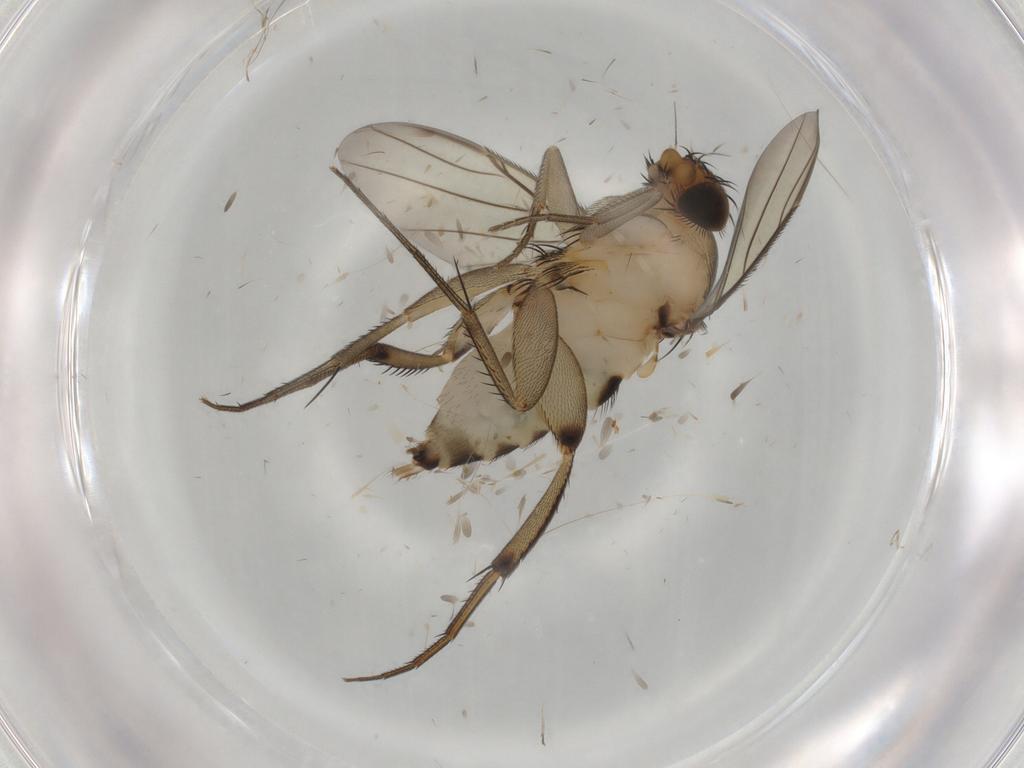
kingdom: Animalia
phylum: Arthropoda
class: Insecta
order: Diptera
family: Phoridae
